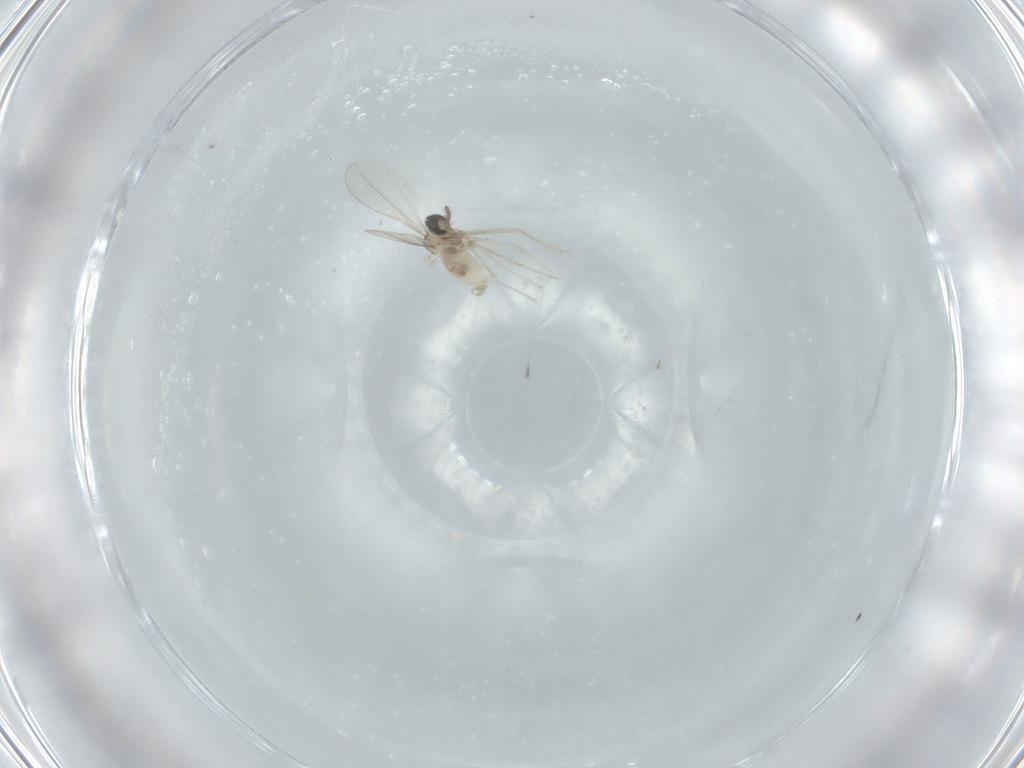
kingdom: Animalia
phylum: Arthropoda
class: Insecta
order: Diptera
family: Cecidomyiidae
